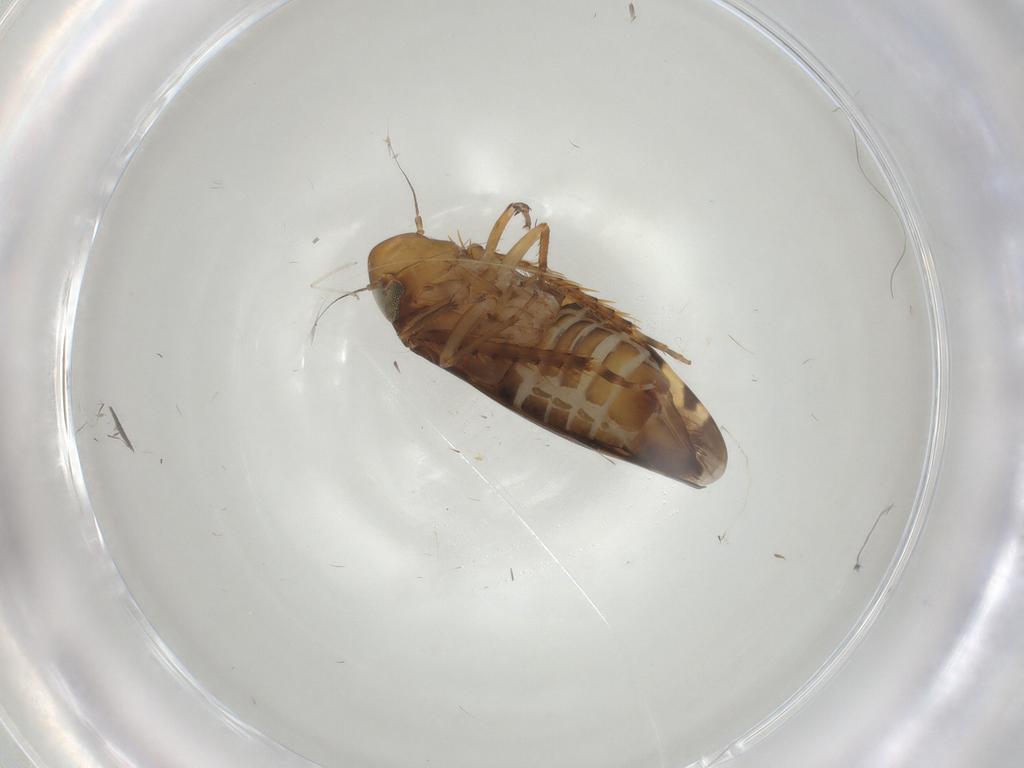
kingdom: Animalia
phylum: Arthropoda
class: Insecta
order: Hemiptera
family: Cicadellidae
